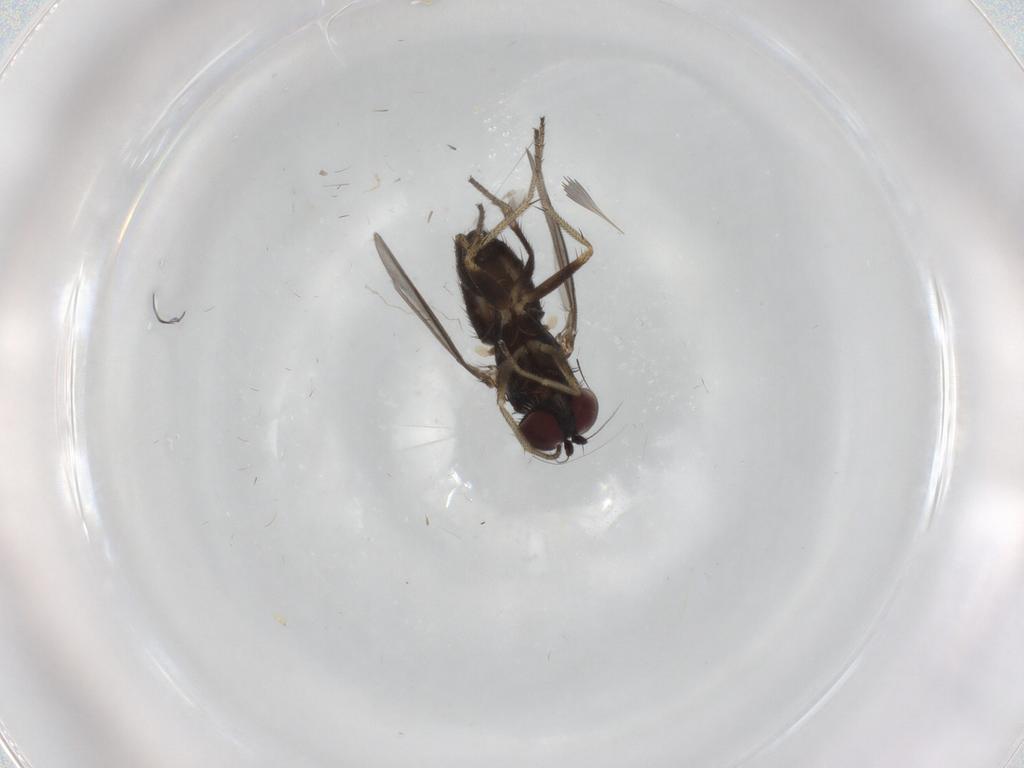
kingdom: Animalia
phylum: Arthropoda
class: Insecta
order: Diptera
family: Dolichopodidae
